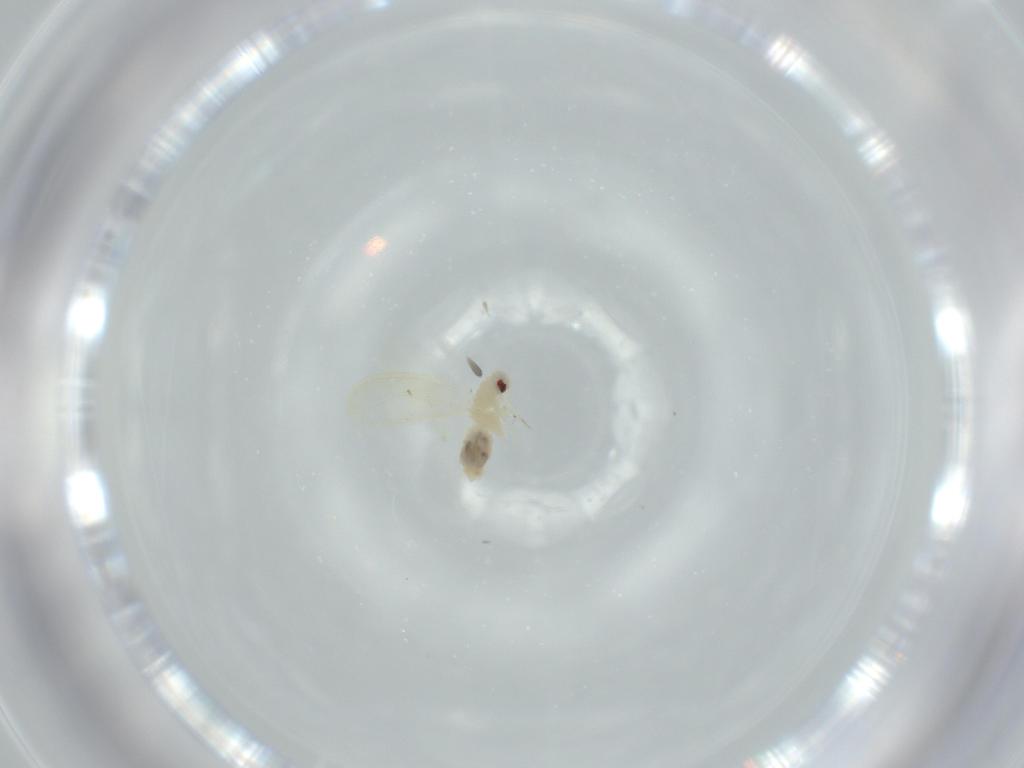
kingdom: Animalia
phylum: Arthropoda
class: Insecta
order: Hemiptera
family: Aleyrodidae
